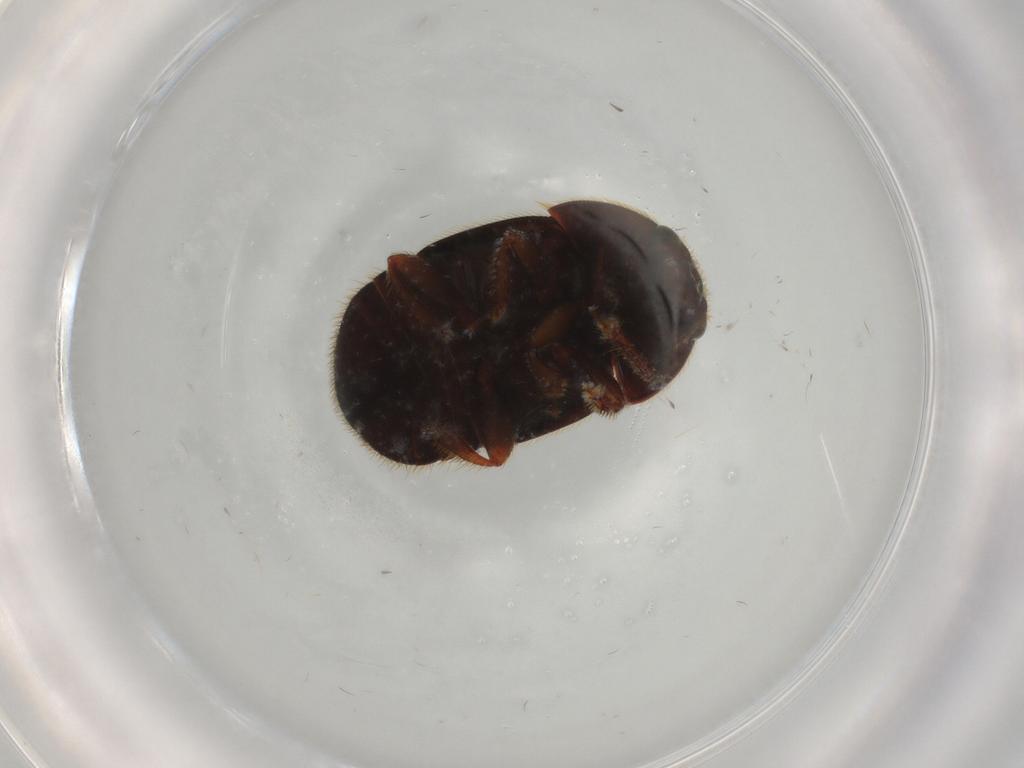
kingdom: Animalia
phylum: Arthropoda
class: Insecta
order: Coleoptera
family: Nitidulidae
